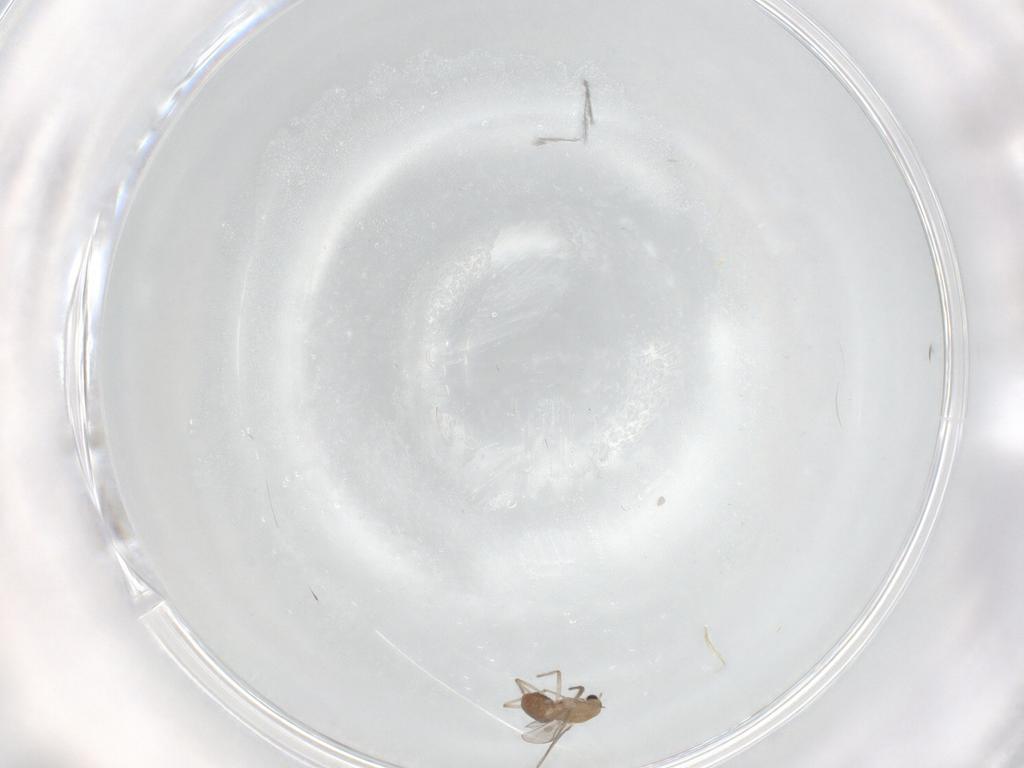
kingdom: Animalia
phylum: Arthropoda
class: Insecta
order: Diptera
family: Chironomidae
